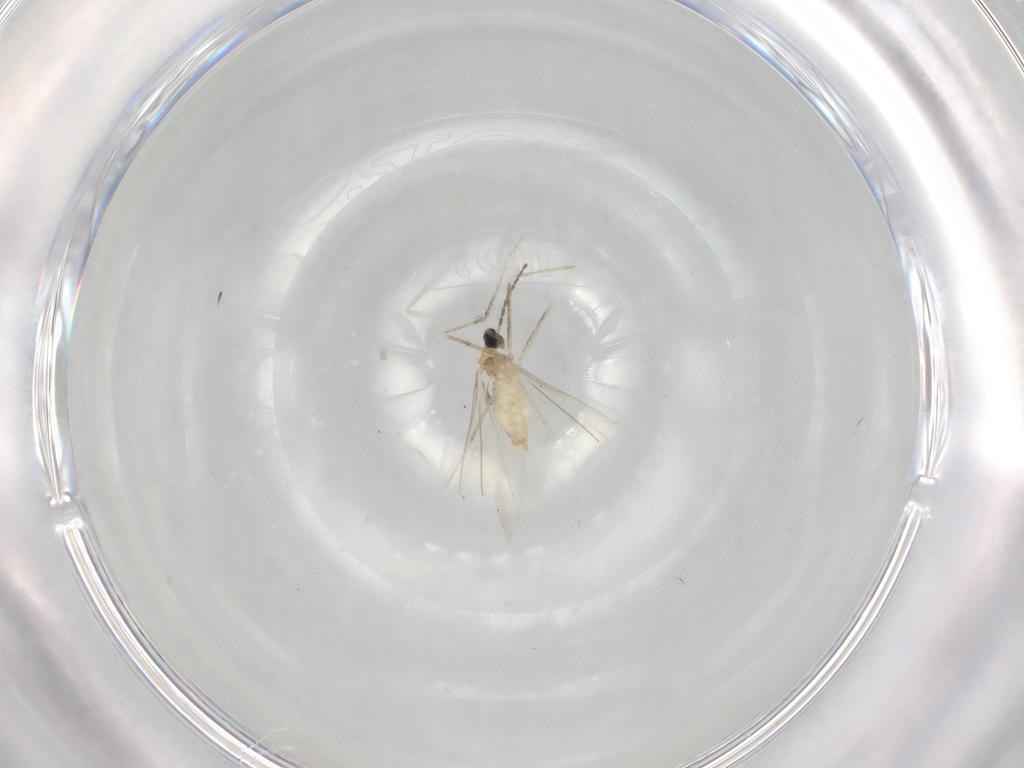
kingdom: Animalia
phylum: Arthropoda
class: Insecta
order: Diptera
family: Cecidomyiidae
